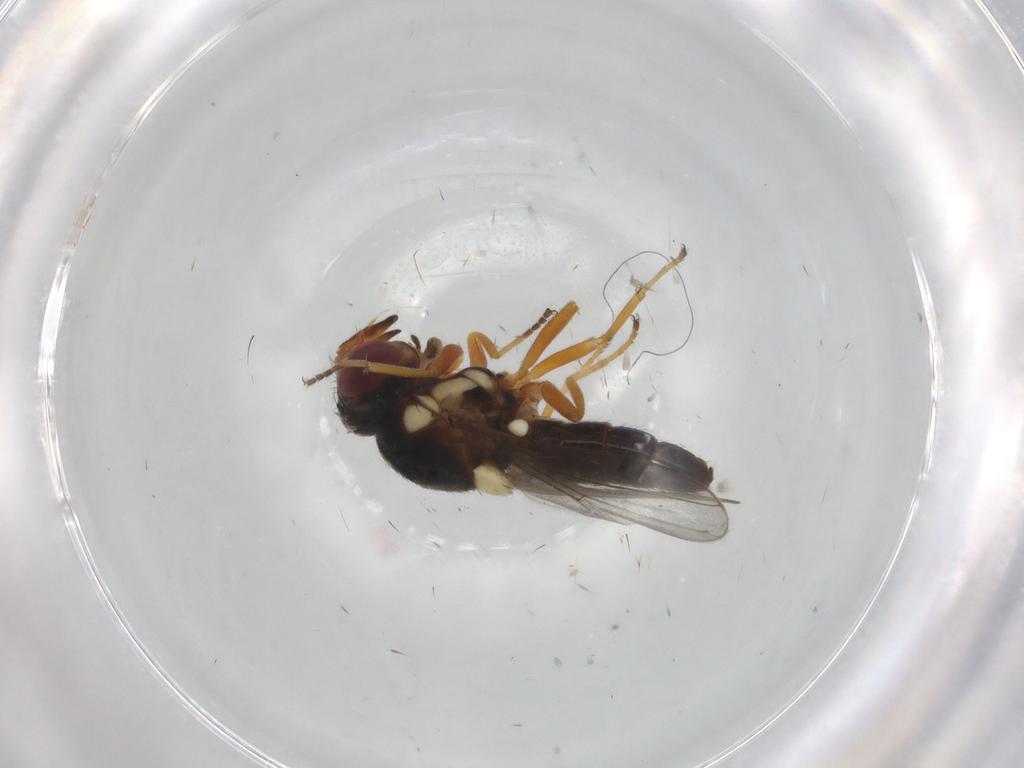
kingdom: Animalia
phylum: Arthropoda
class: Insecta
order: Diptera
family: Chloropidae
